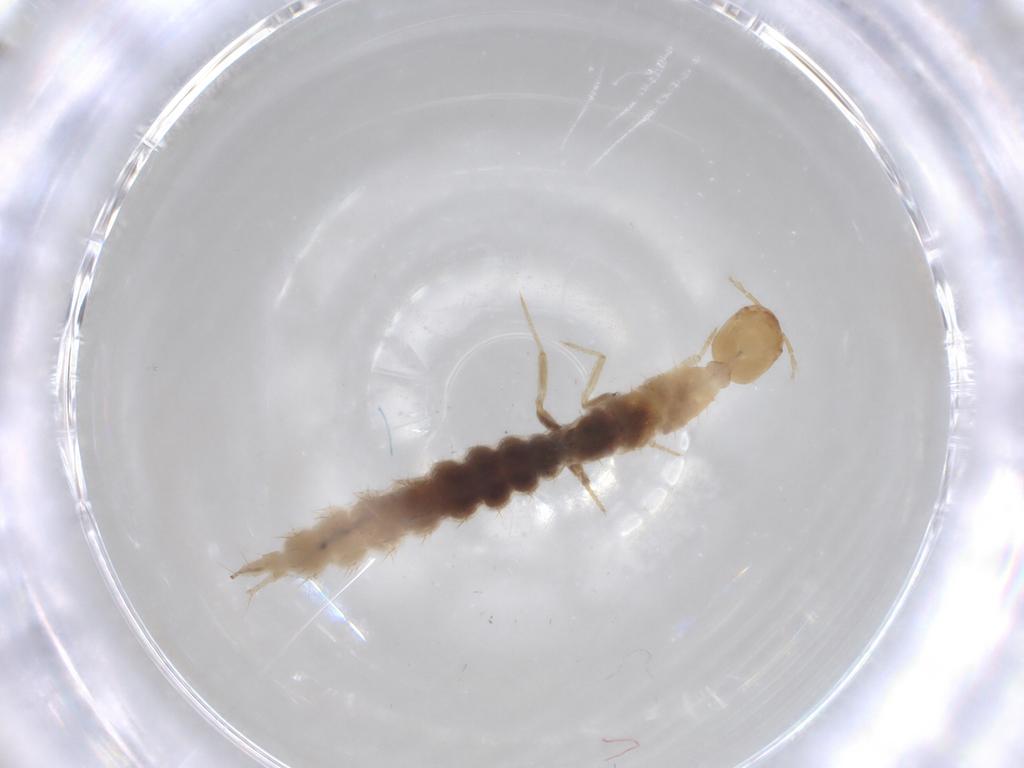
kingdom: Animalia
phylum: Arthropoda
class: Insecta
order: Coleoptera
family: Staphylinidae
